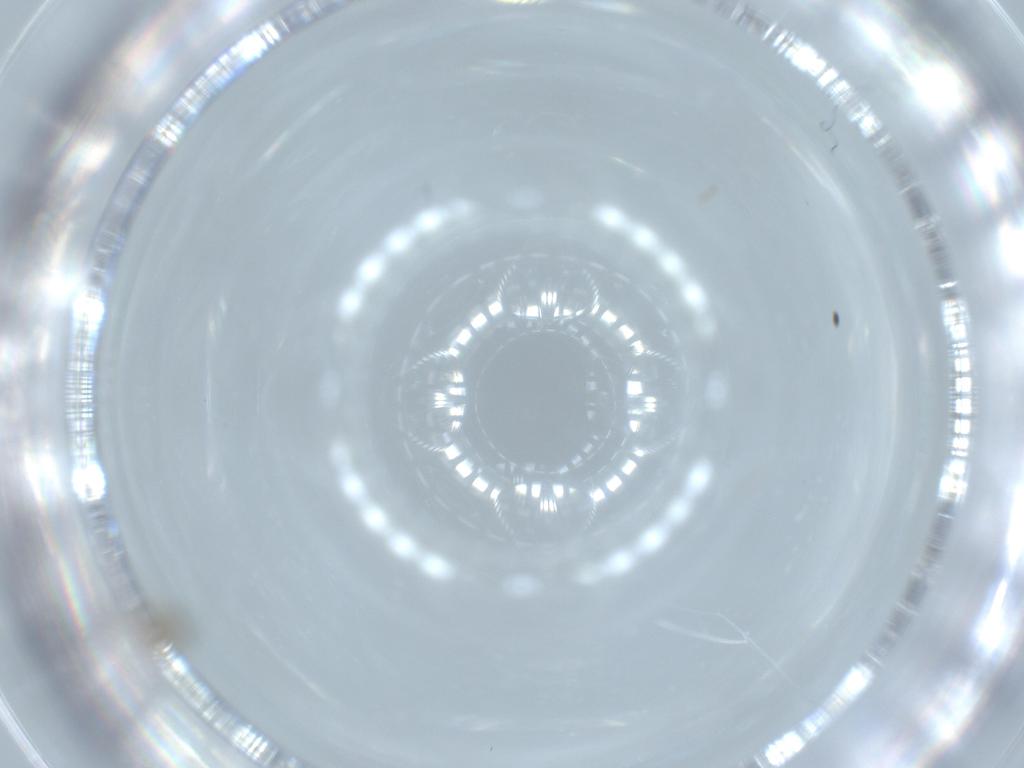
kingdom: Animalia
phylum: Arthropoda
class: Insecta
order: Diptera
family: Cecidomyiidae
